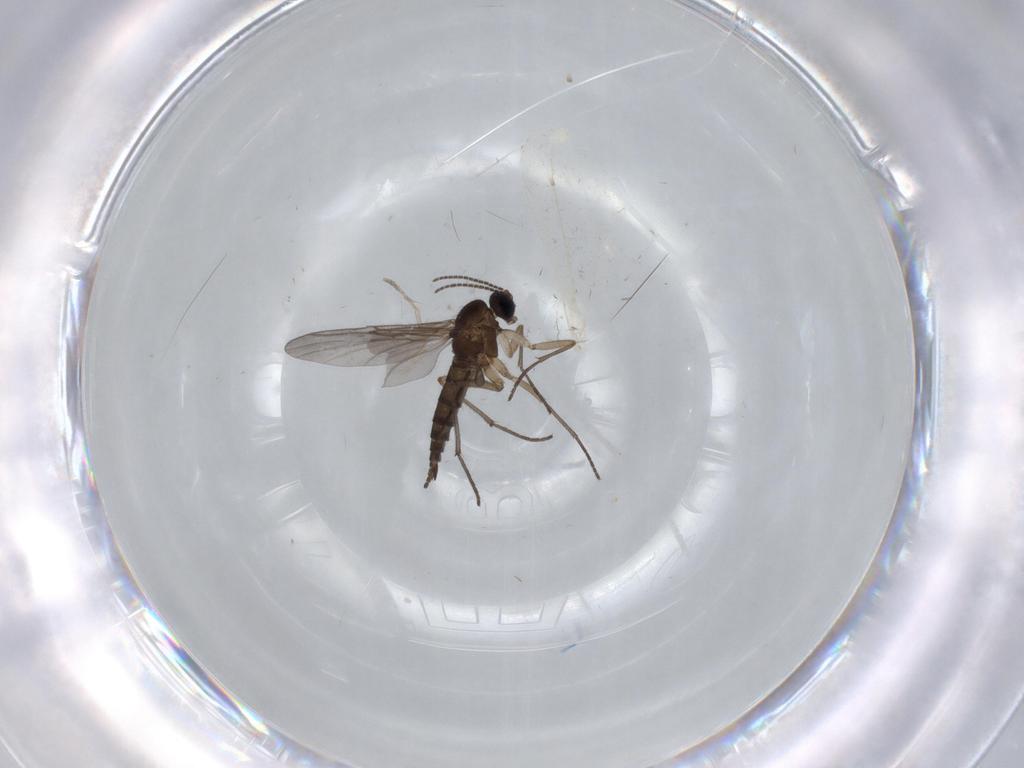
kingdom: Animalia
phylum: Arthropoda
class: Insecta
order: Diptera
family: Sciaridae
